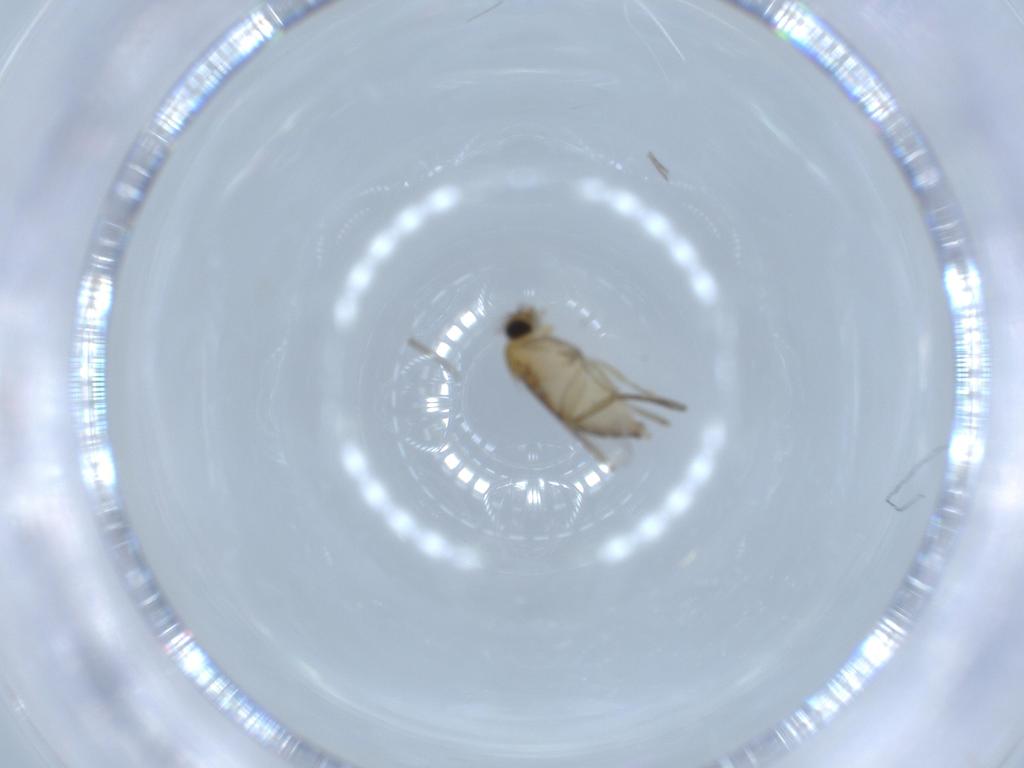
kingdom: Animalia
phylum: Arthropoda
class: Insecta
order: Diptera
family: Phoridae
